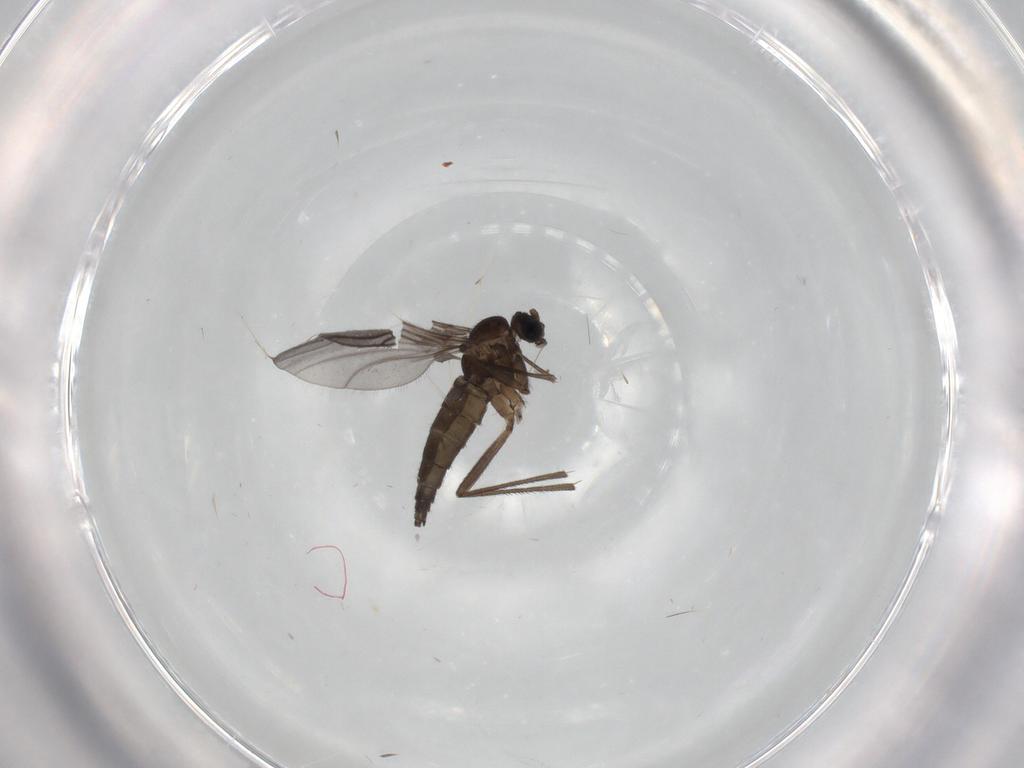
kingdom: Animalia
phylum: Arthropoda
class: Insecta
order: Diptera
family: Sciaridae
